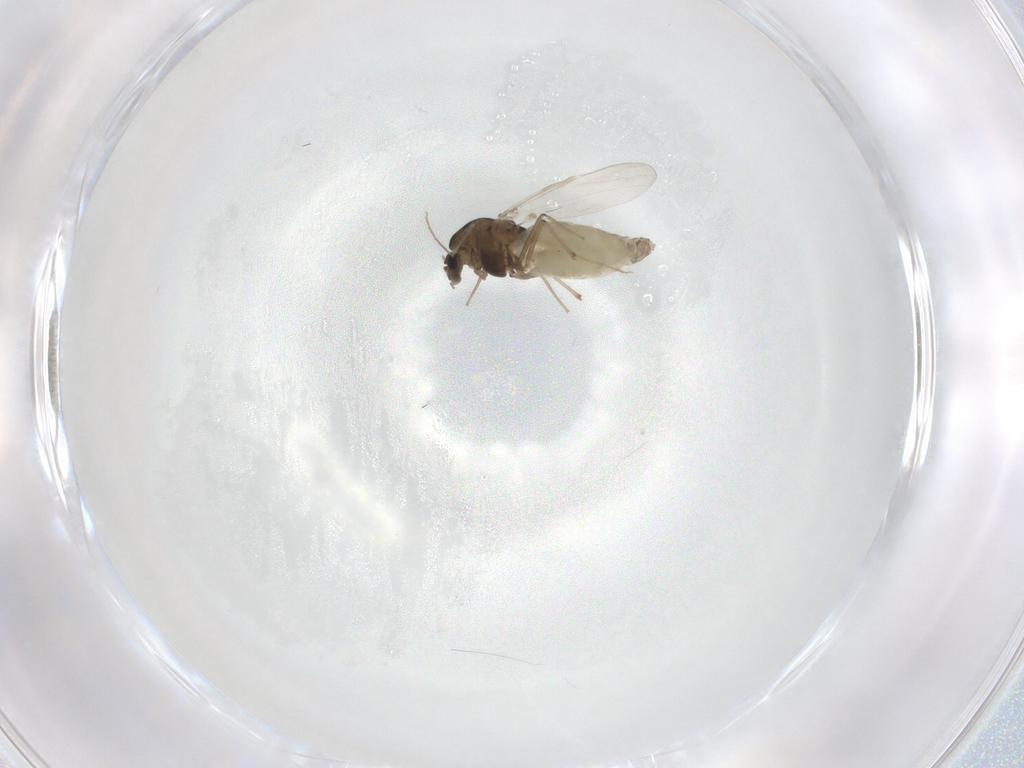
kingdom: Animalia
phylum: Arthropoda
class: Insecta
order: Diptera
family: Chironomidae
